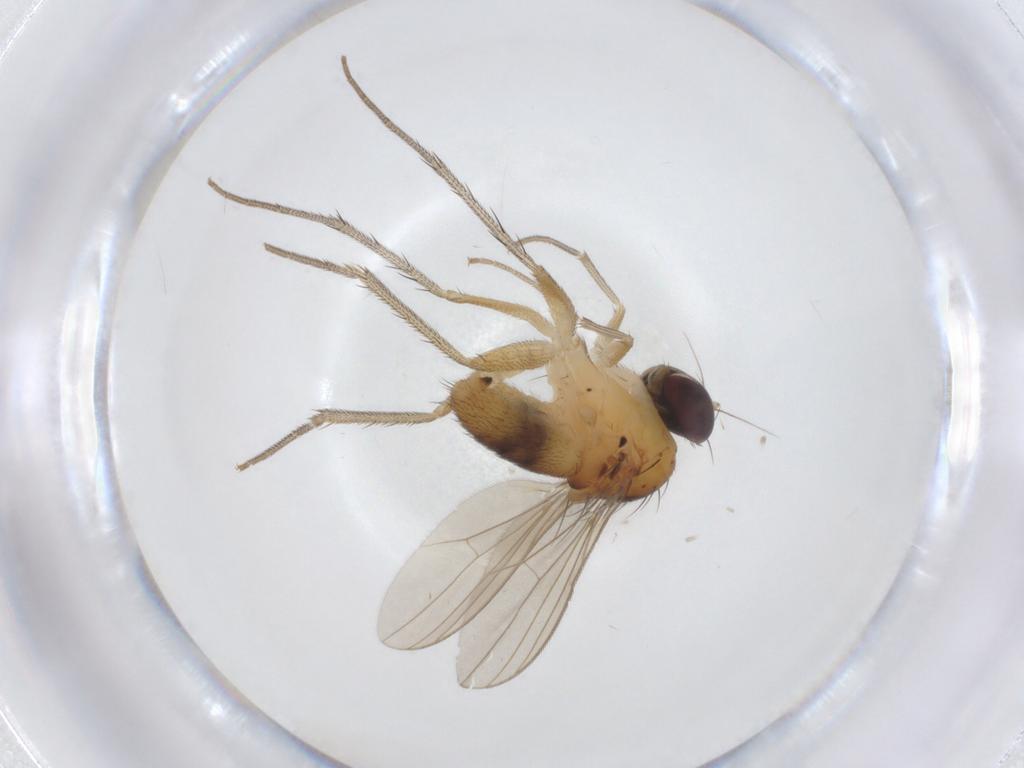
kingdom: Animalia
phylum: Arthropoda
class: Insecta
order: Diptera
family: Dolichopodidae
